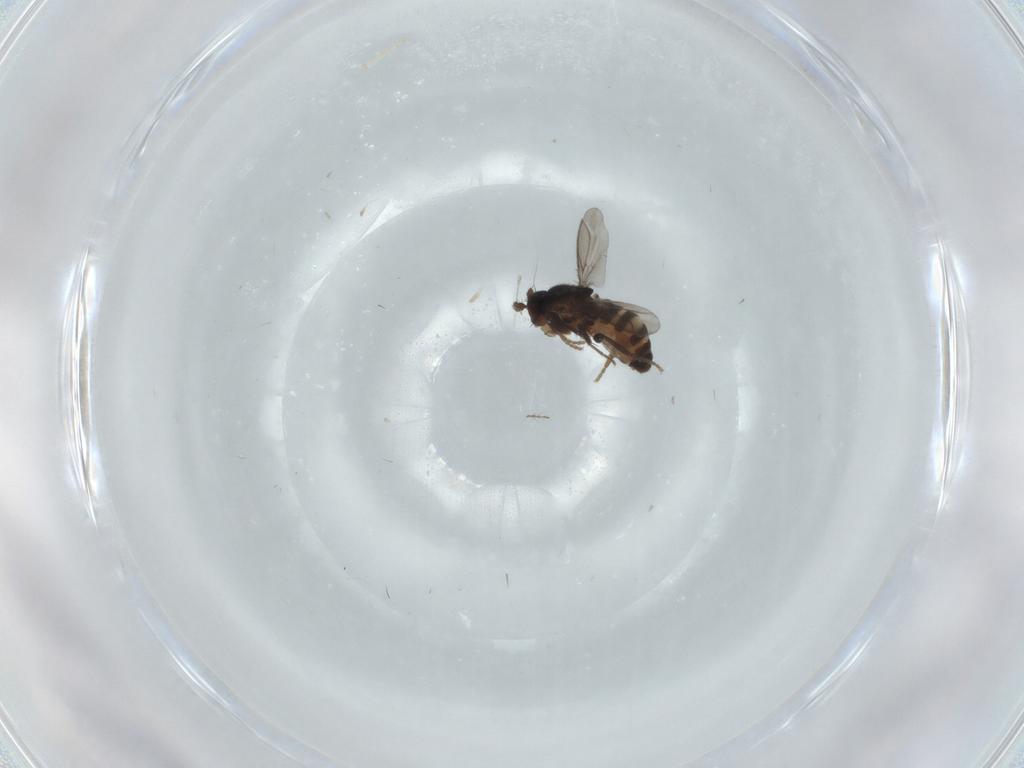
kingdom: Animalia
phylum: Arthropoda
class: Insecta
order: Diptera
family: Chironomidae
